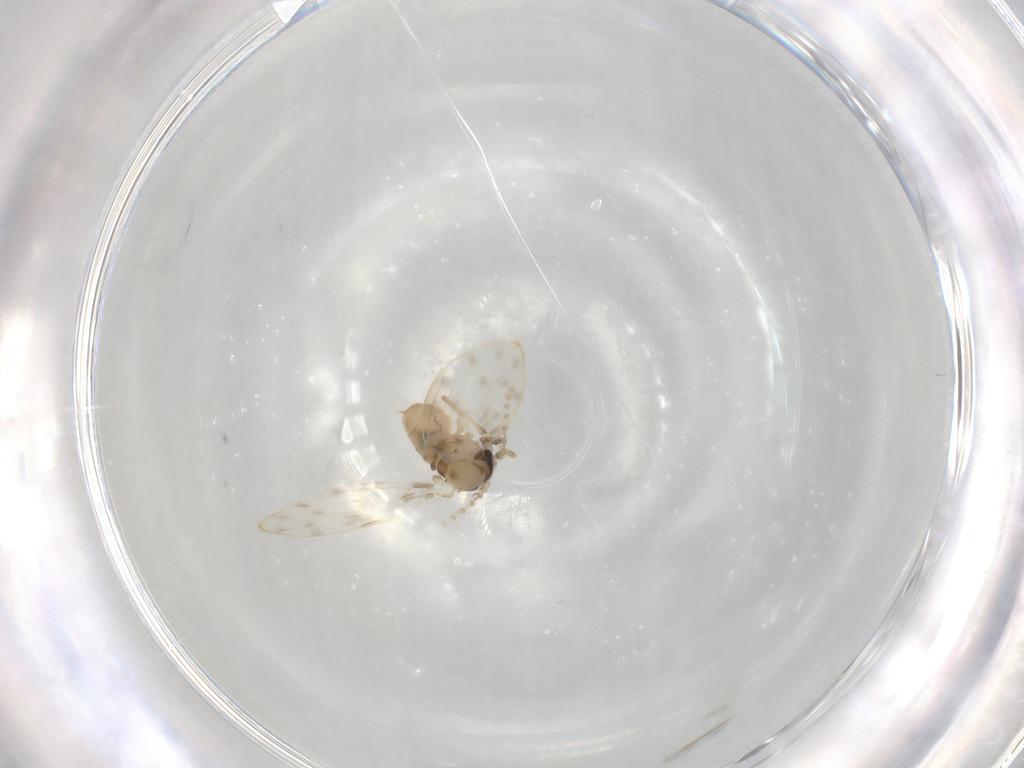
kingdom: Animalia
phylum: Arthropoda
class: Insecta
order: Diptera
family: Psychodidae
